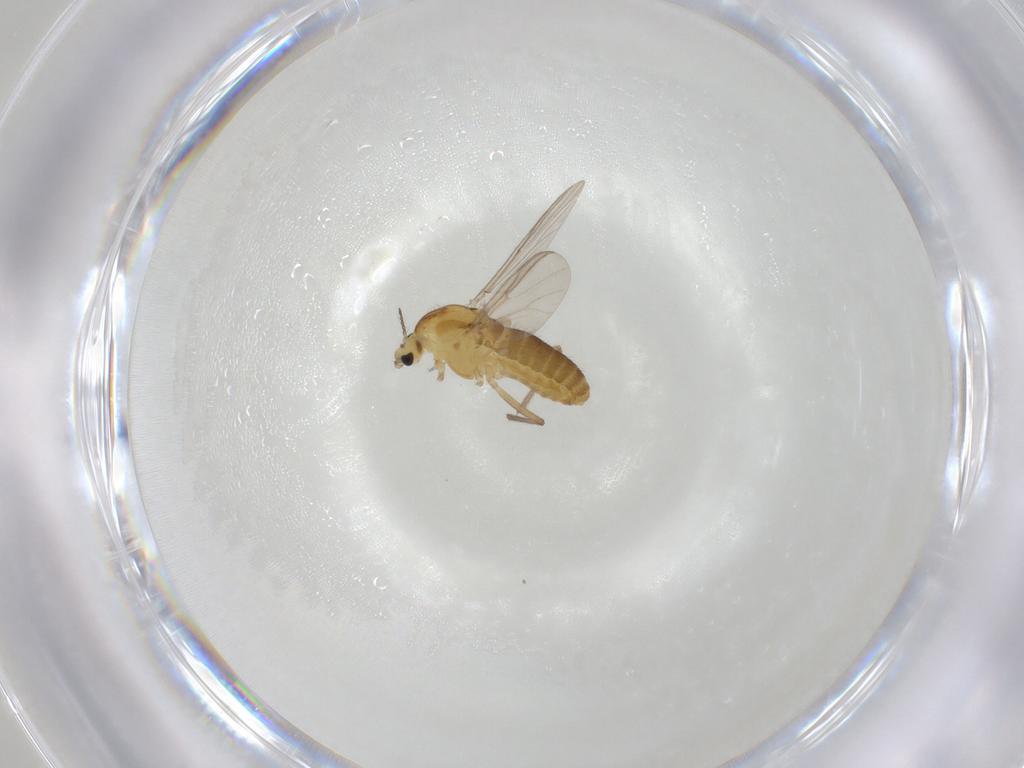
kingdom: Animalia
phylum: Arthropoda
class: Insecta
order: Diptera
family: Chironomidae
